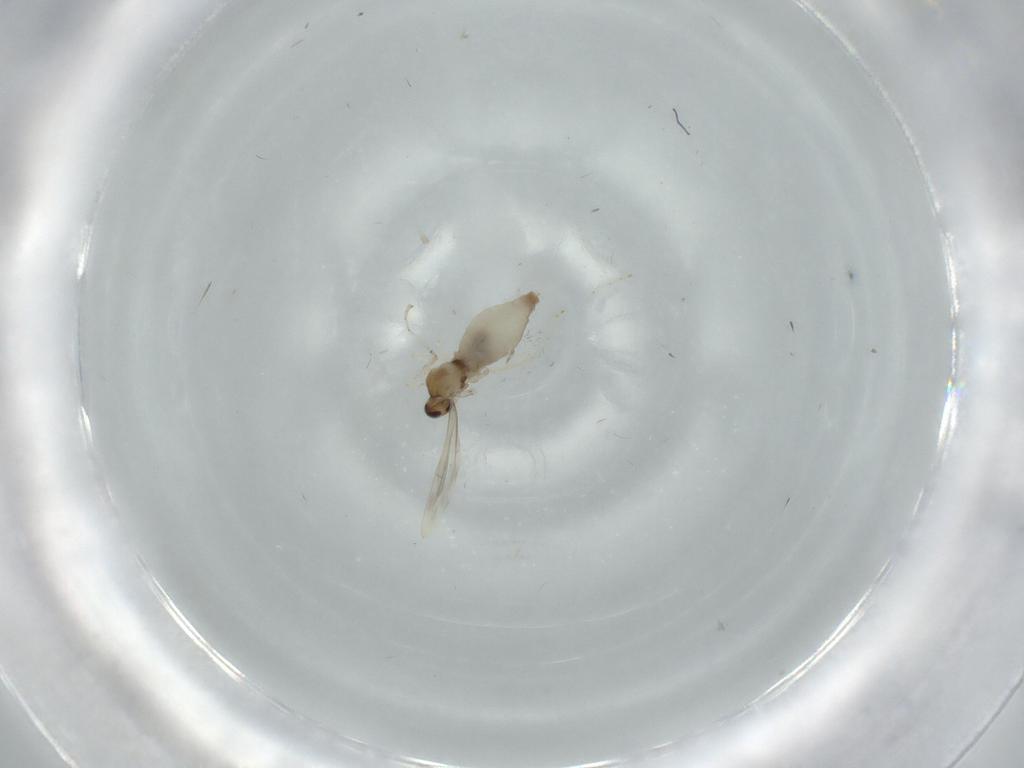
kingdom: Animalia
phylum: Arthropoda
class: Insecta
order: Diptera
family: Cecidomyiidae
